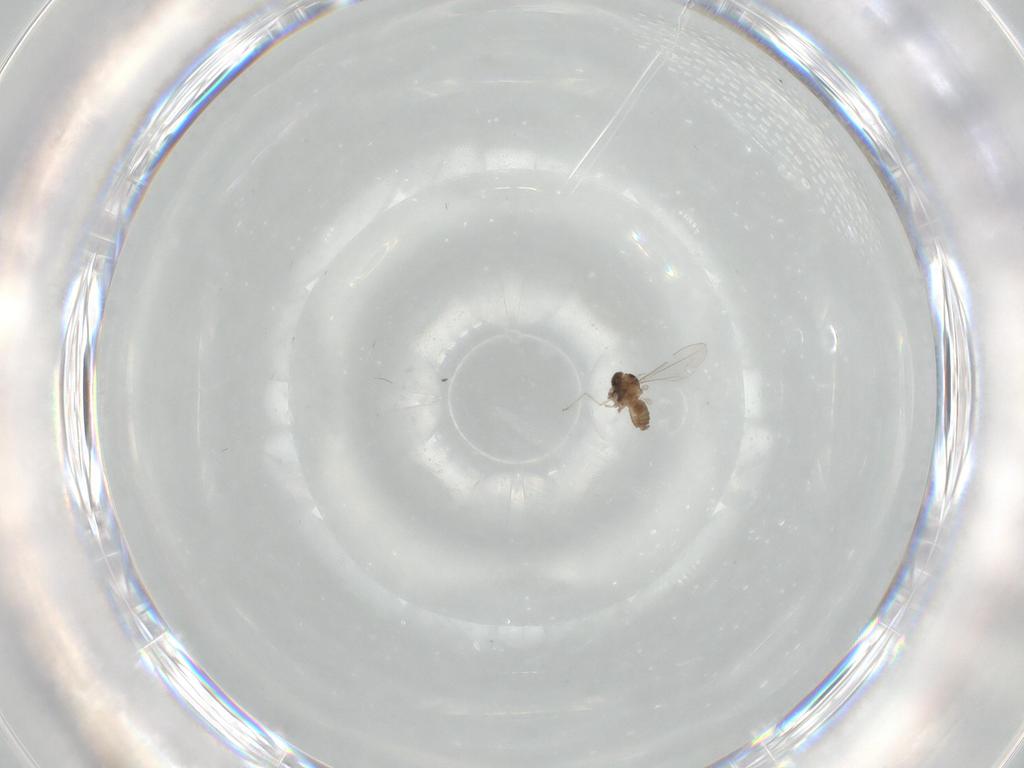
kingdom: Animalia
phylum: Arthropoda
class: Insecta
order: Diptera
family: Cecidomyiidae
